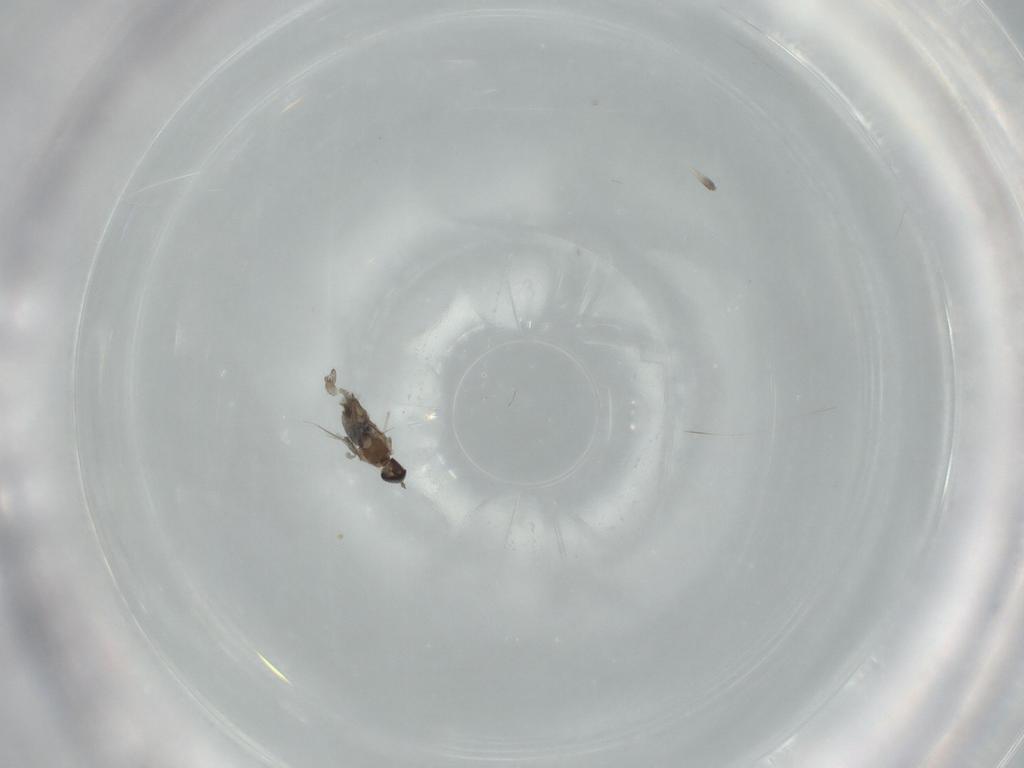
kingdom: Animalia
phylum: Arthropoda
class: Insecta
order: Diptera
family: Cecidomyiidae
